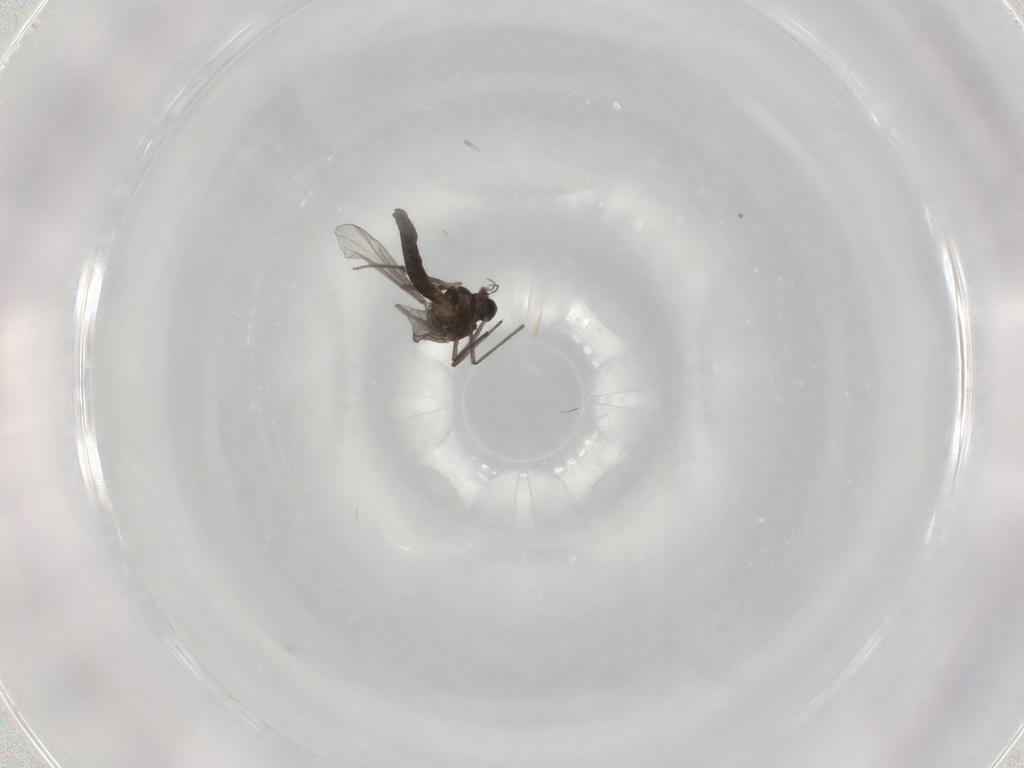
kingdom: Animalia
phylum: Arthropoda
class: Insecta
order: Diptera
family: Chironomidae
